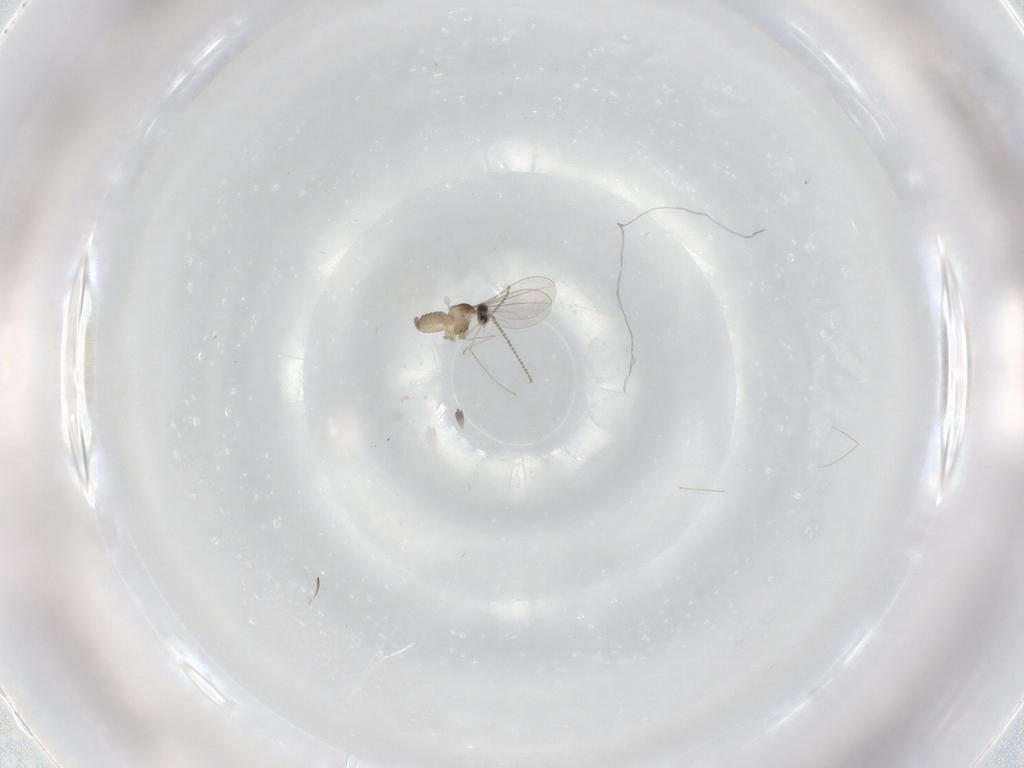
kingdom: Animalia
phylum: Arthropoda
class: Insecta
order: Diptera
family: Cecidomyiidae
